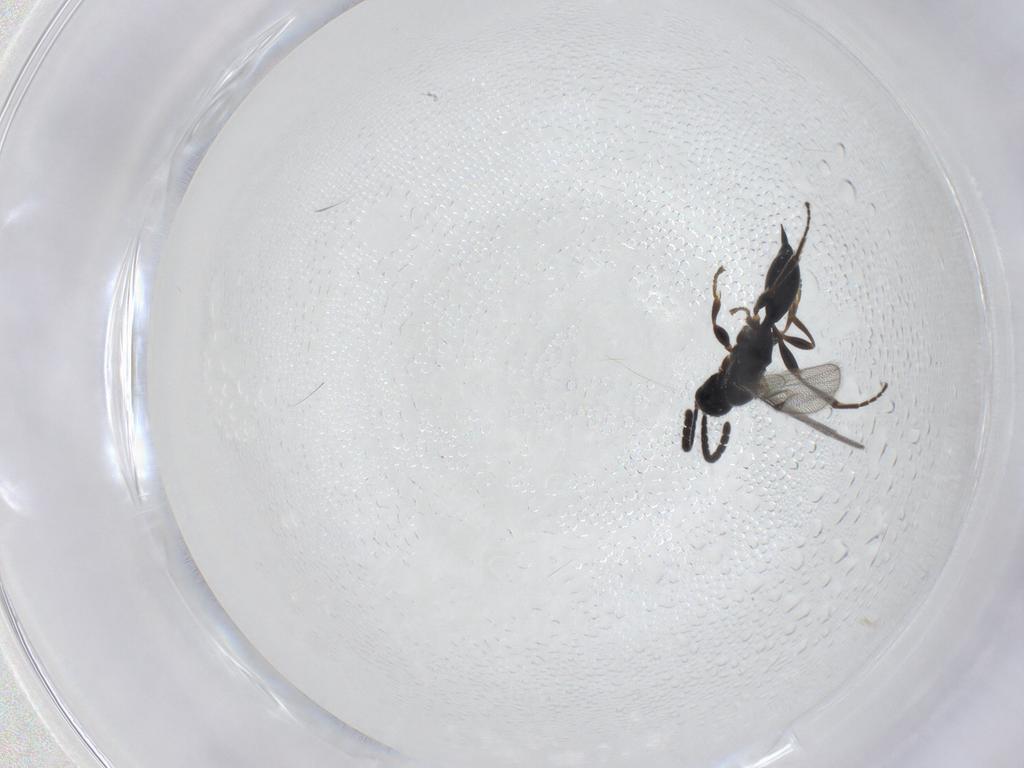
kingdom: Animalia
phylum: Arthropoda
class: Insecta
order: Hymenoptera
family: Proctotrupidae
